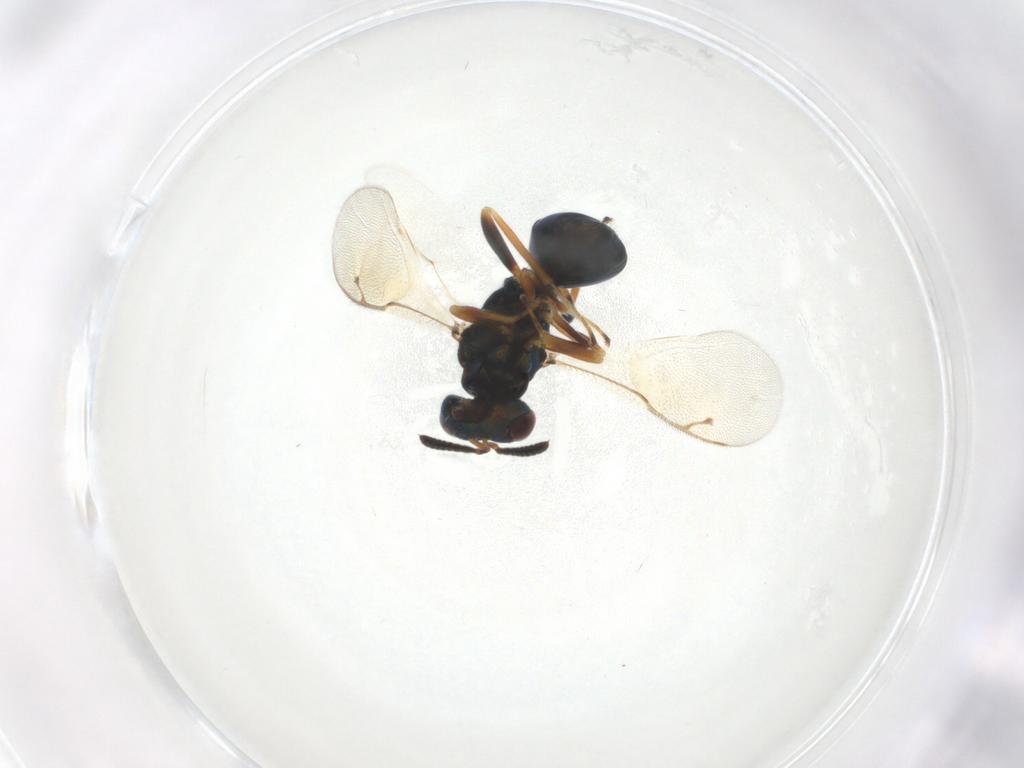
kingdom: Animalia
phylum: Arthropoda
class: Insecta
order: Hymenoptera
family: Pteromalidae
